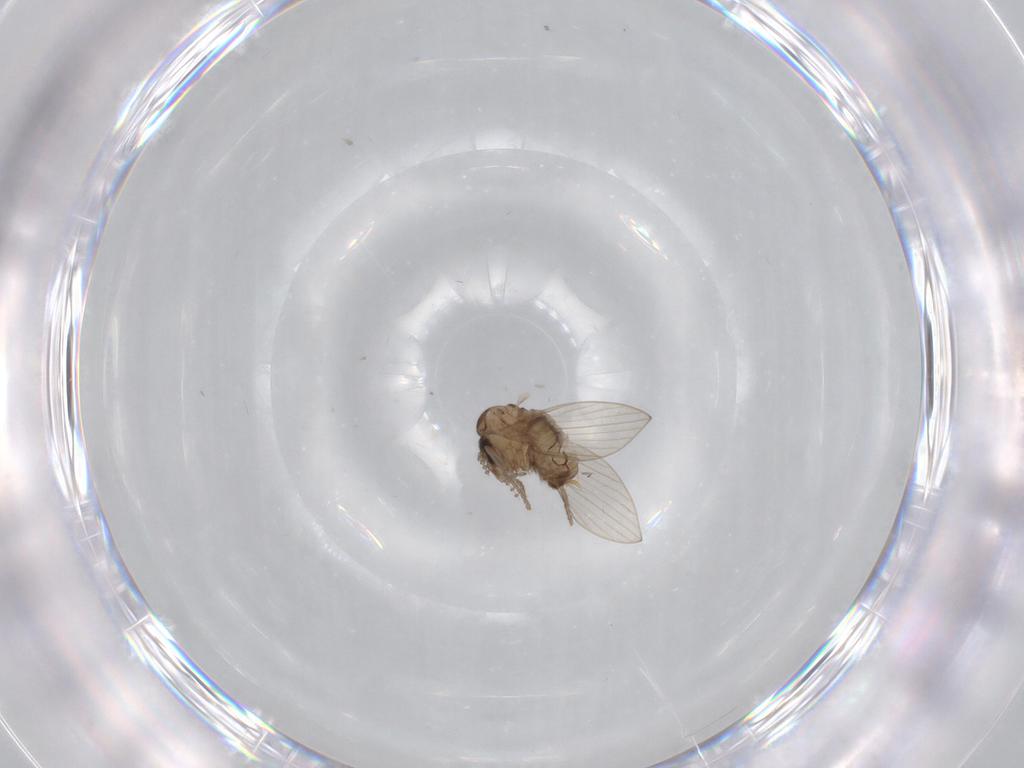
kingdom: Animalia
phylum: Arthropoda
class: Insecta
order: Diptera
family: Psychodidae
